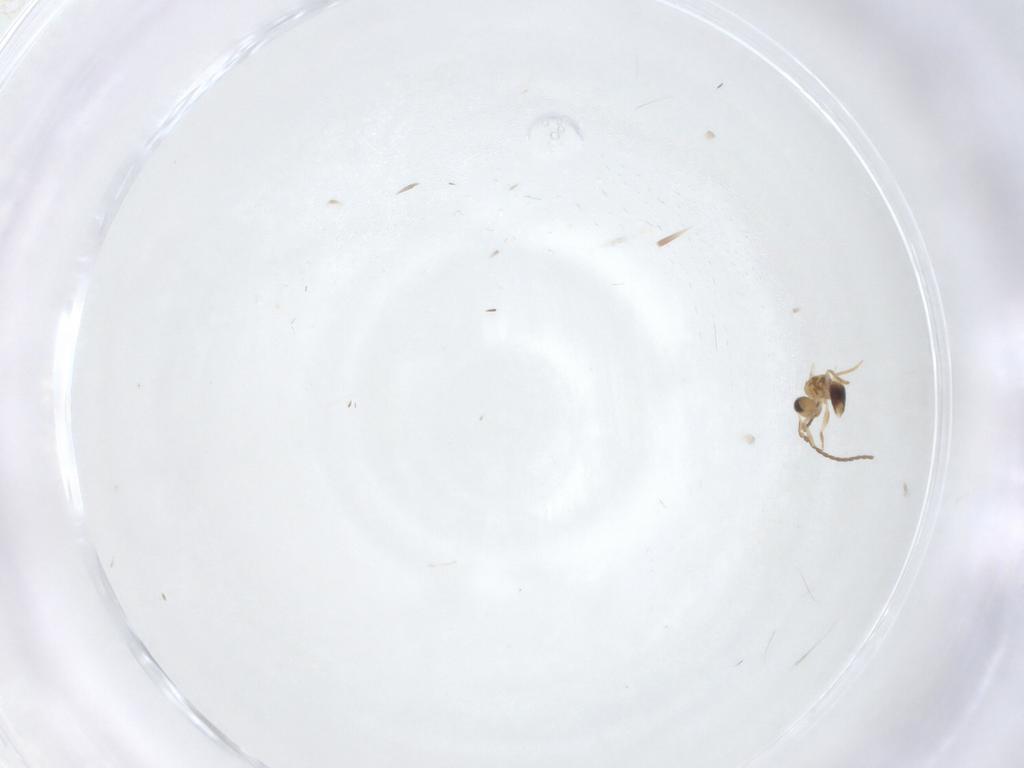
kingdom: Animalia
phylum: Arthropoda
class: Insecta
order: Hymenoptera
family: Mymaridae
